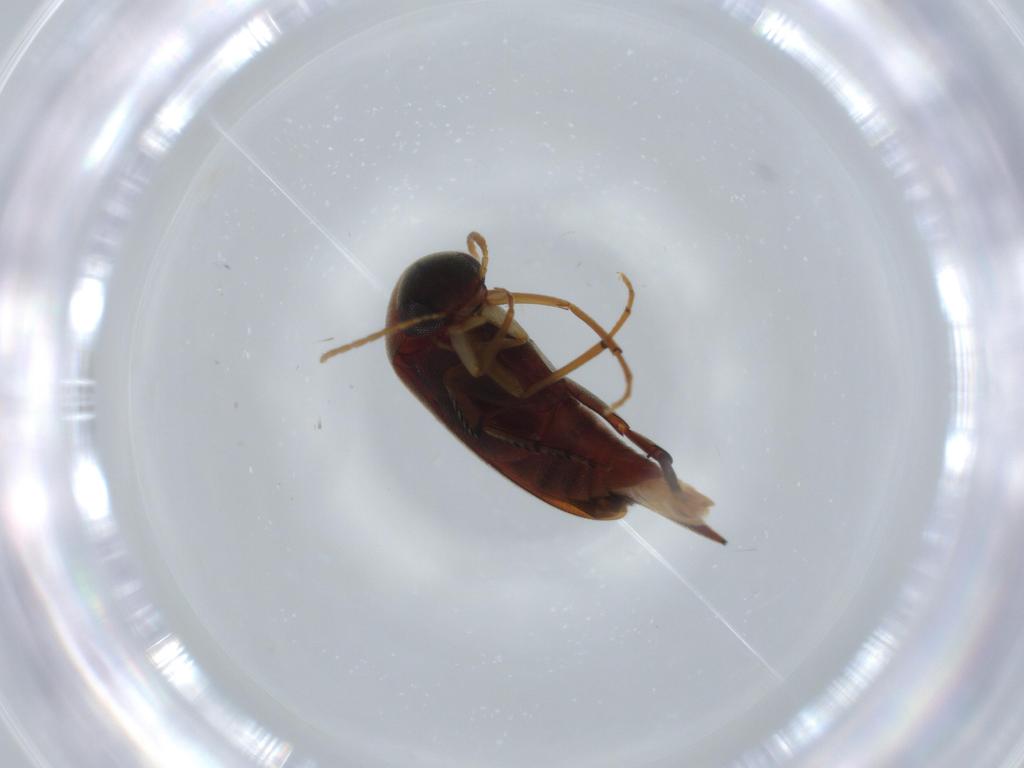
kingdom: Animalia
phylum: Arthropoda
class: Insecta
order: Coleoptera
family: Mordellidae
